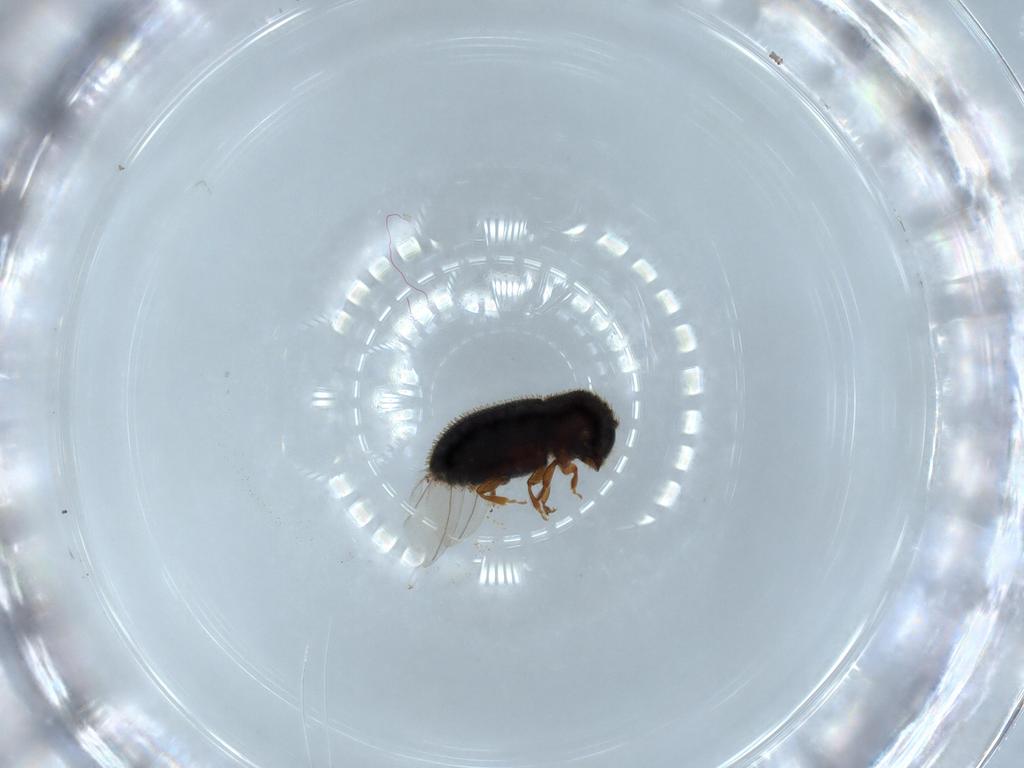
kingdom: Animalia
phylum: Arthropoda
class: Insecta
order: Coleoptera
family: Curculionidae
